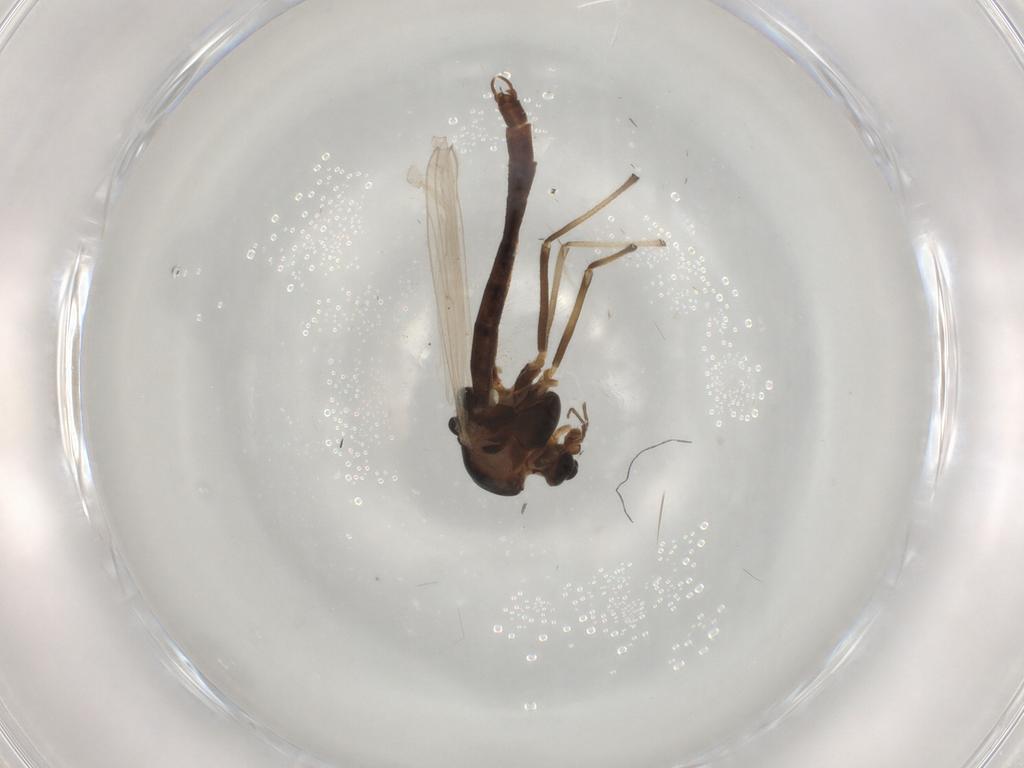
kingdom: Animalia
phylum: Arthropoda
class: Insecta
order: Diptera
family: Chironomidae
